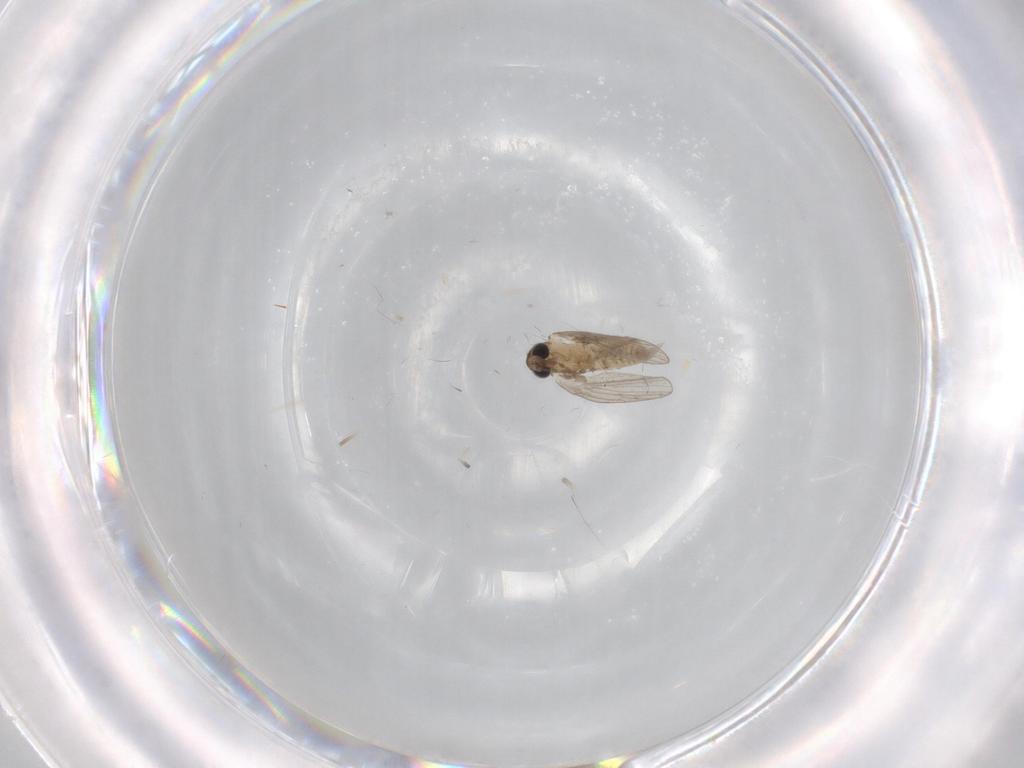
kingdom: Animalia
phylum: Arthropoda
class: Insecta
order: Diptera
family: Psychodidae
